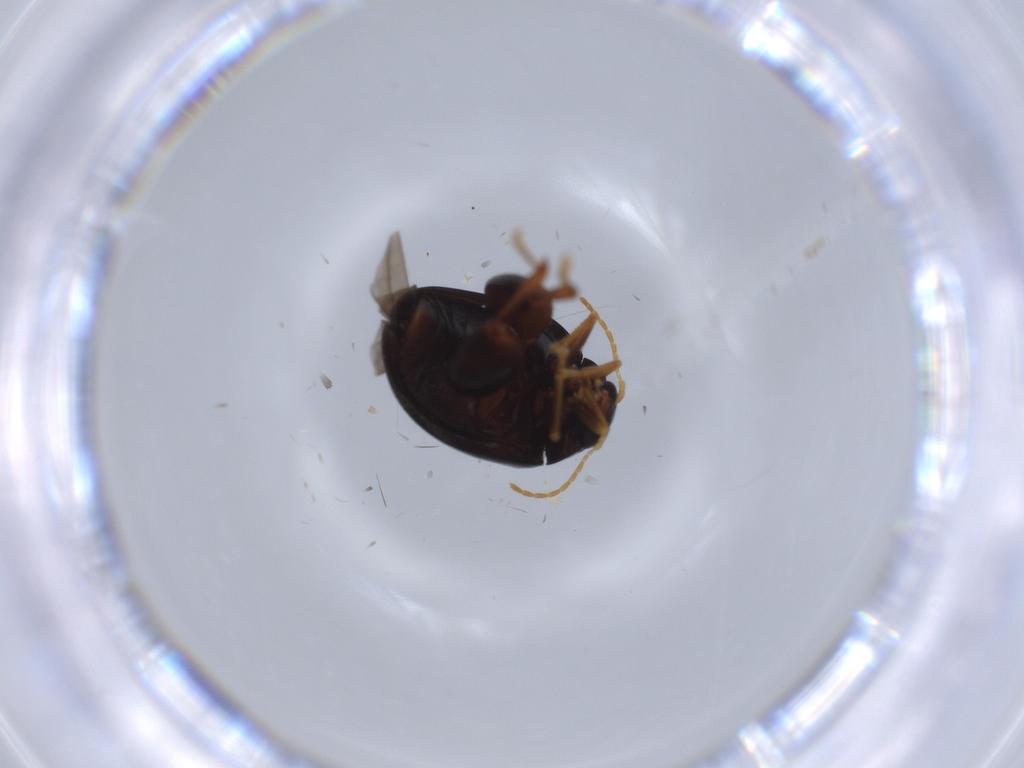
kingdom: Animalia
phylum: Arthropoda
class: Insecta
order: Coleoptera
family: Chrysomelidae
